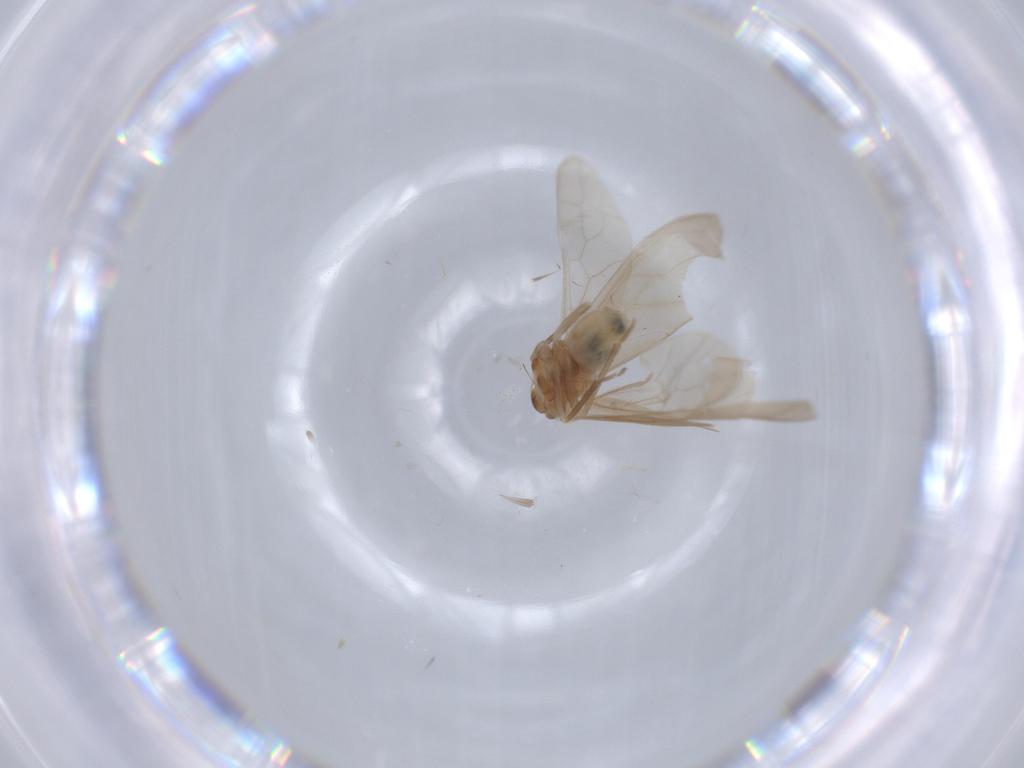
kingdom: Animalia
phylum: Arthropoda
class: Insecta
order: Psocodea
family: Caeciliusidae
